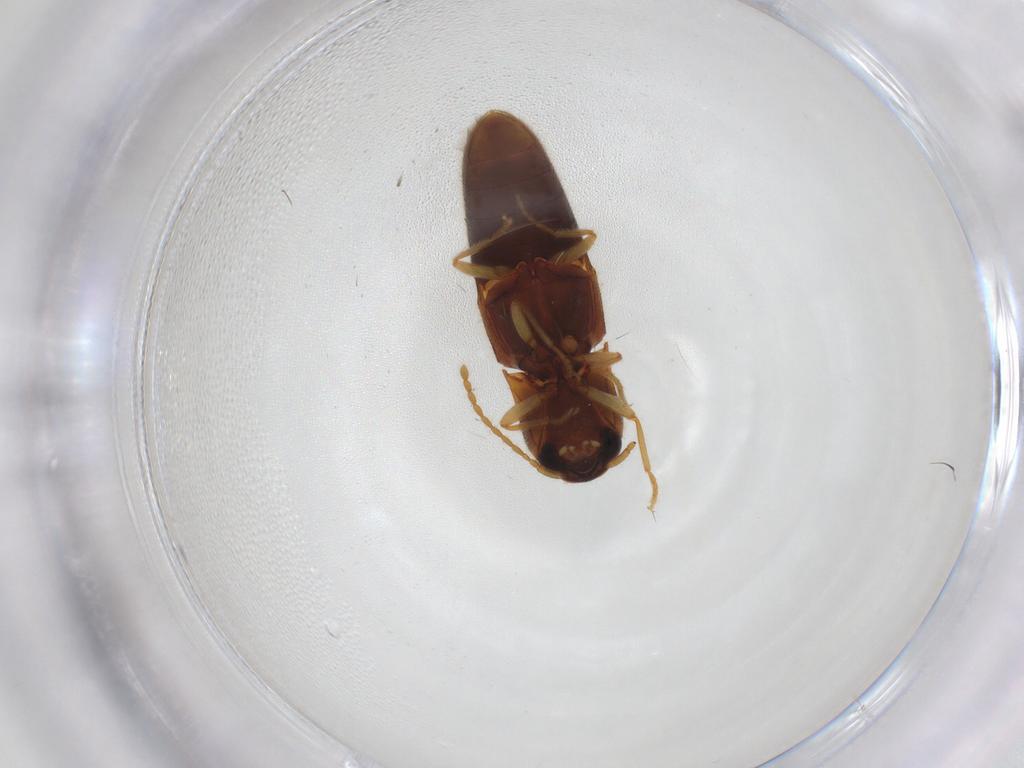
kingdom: Animalia
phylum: Arthropoda
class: Insecta
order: Coleoptera
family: Elateridae
